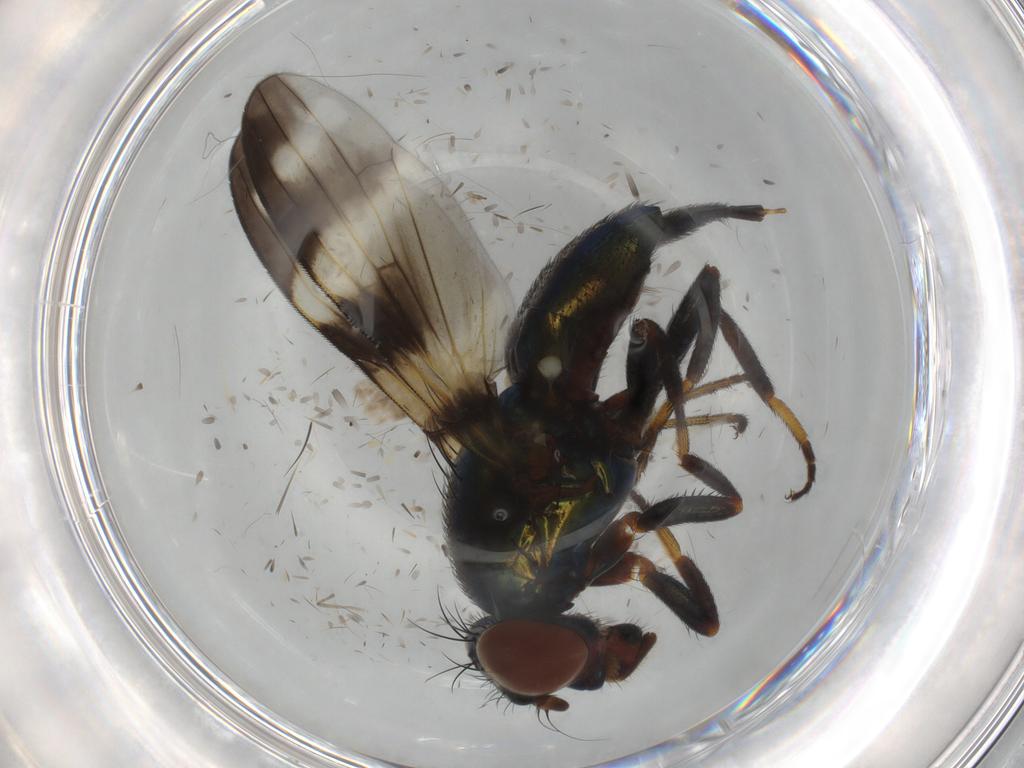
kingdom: Animalia
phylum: Arthropoda
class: Insecta
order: Diptera
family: Ulidiidae
